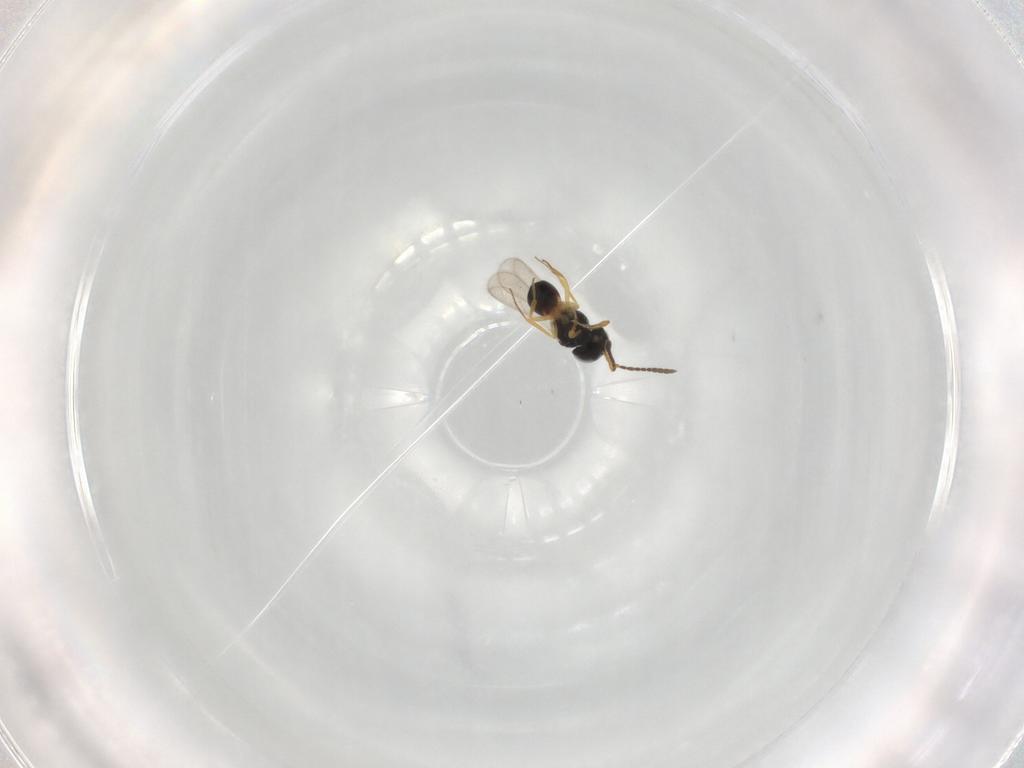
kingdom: Animalia
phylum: Arthropoda
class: Insecta
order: Hymenoptera
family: Scelionidae
